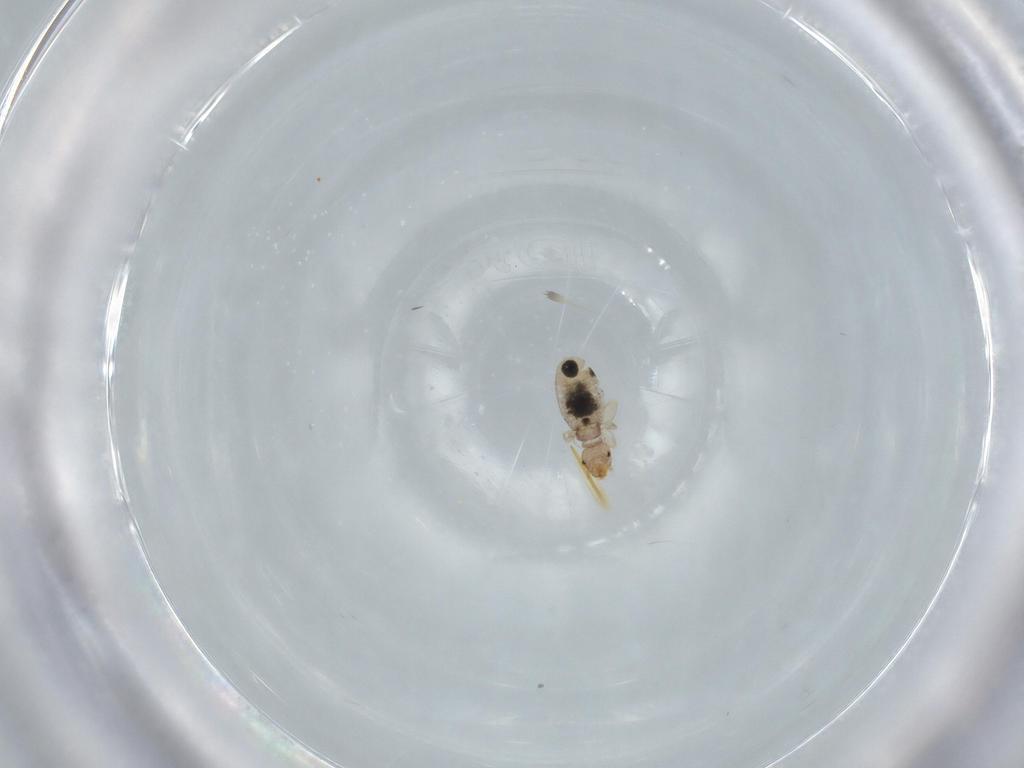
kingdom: Animalia
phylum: Arthropoda
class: Insecta
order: Psocodea
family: Liposcelididae
